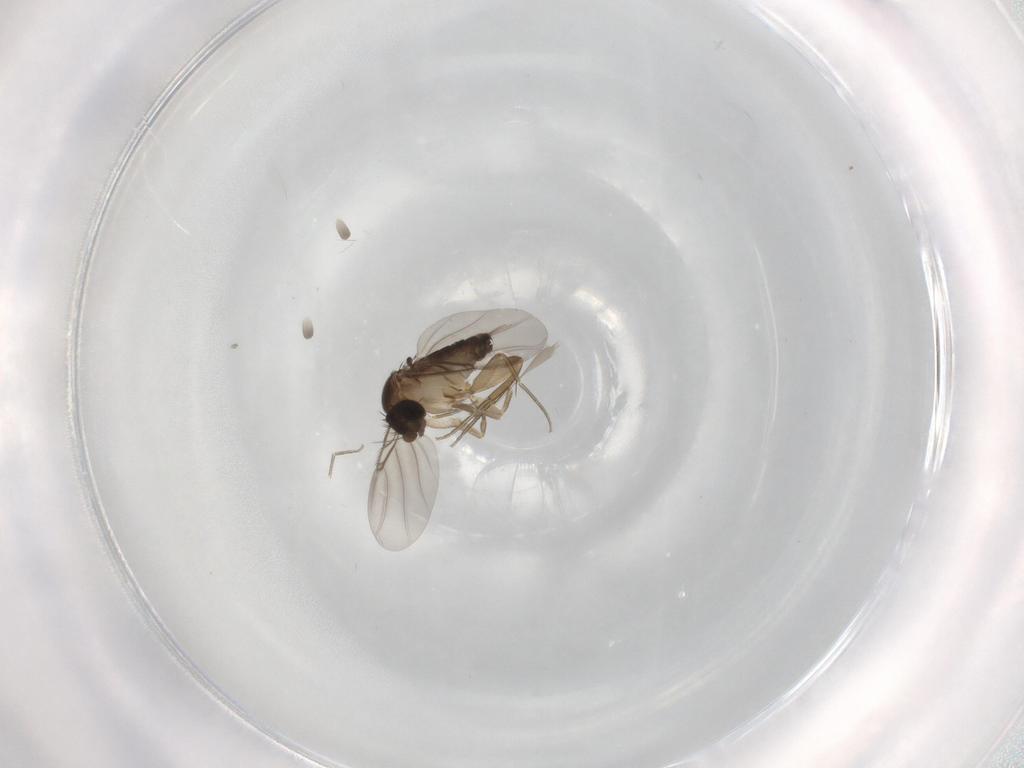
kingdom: Animalia
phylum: Arthropoda
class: Insecta
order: Diptera
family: Phoridae
